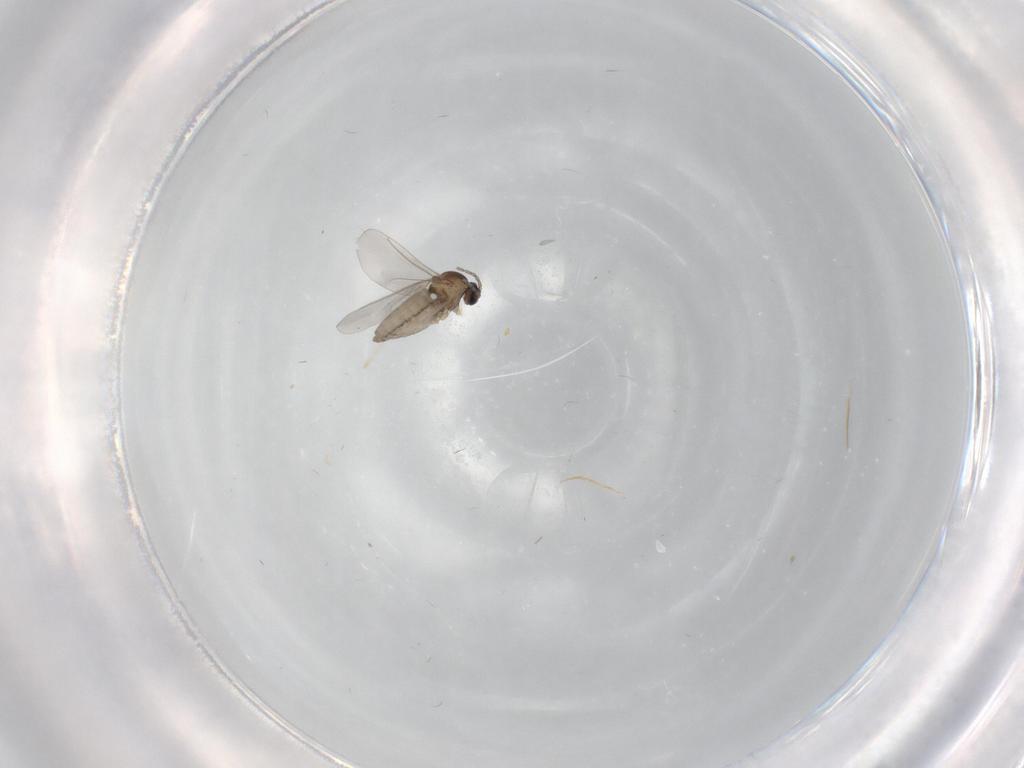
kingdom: Animalia
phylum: Arthropoda
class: Insecta
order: Diptera
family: Cecidomyiidae
